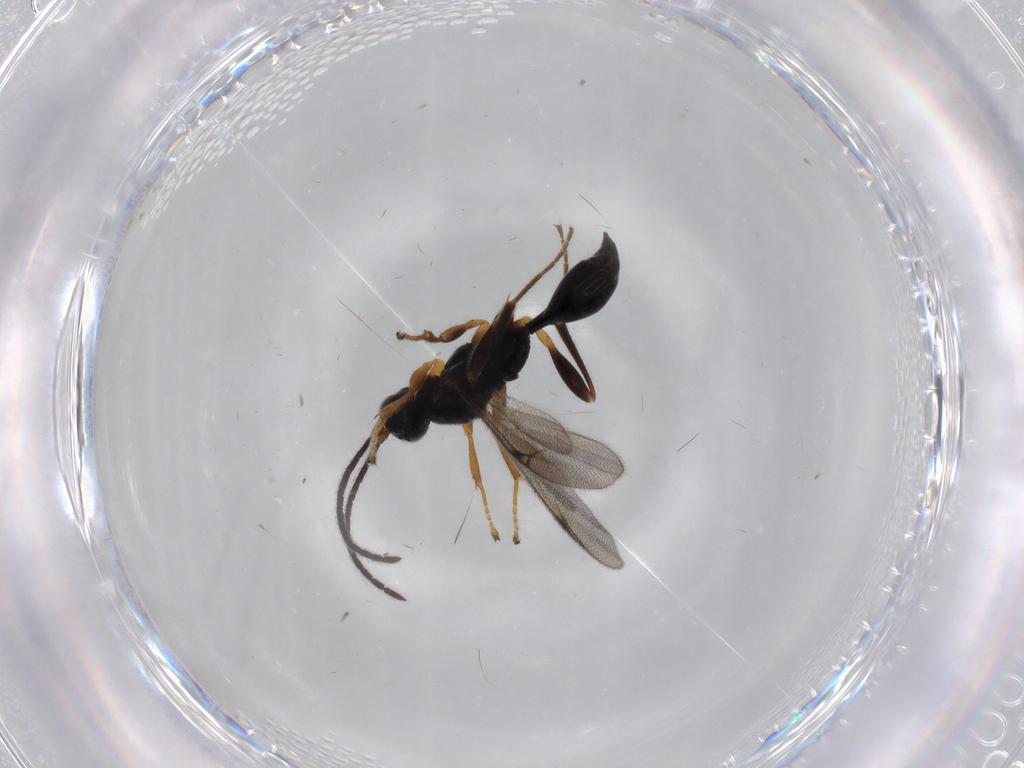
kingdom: Animalia
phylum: Arthropoda
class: Insecta
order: Hymenoptera
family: Proctotrupidae
